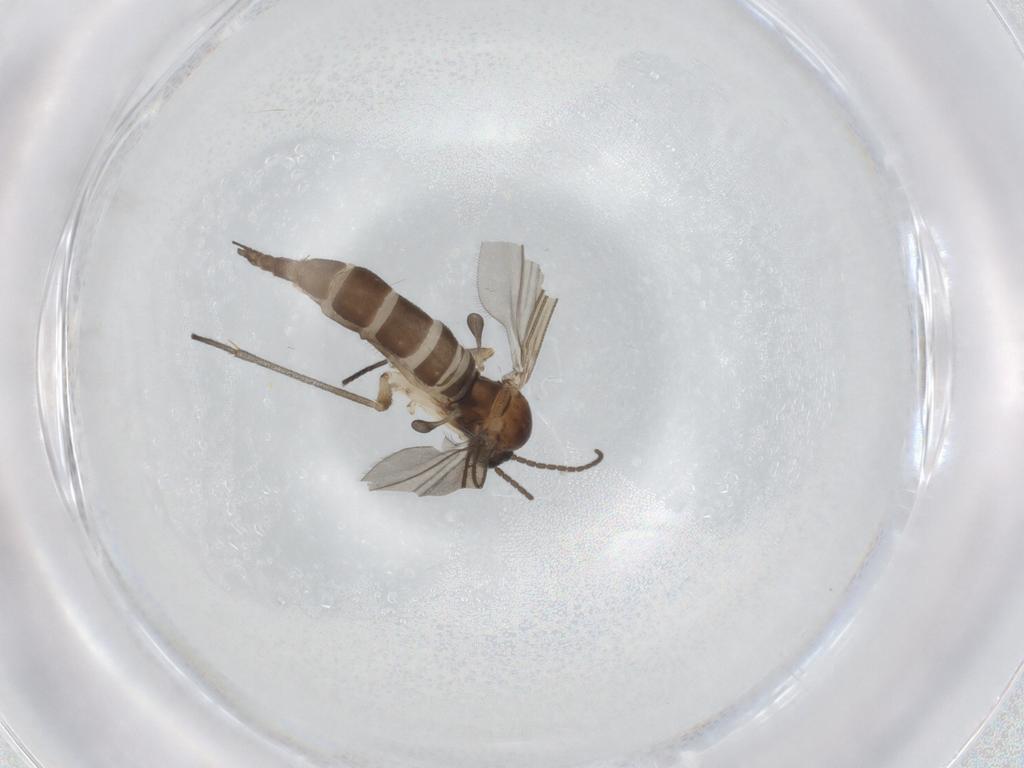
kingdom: Animalia
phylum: Arthropoda
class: Insecta
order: Diptera
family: Sciaridae
